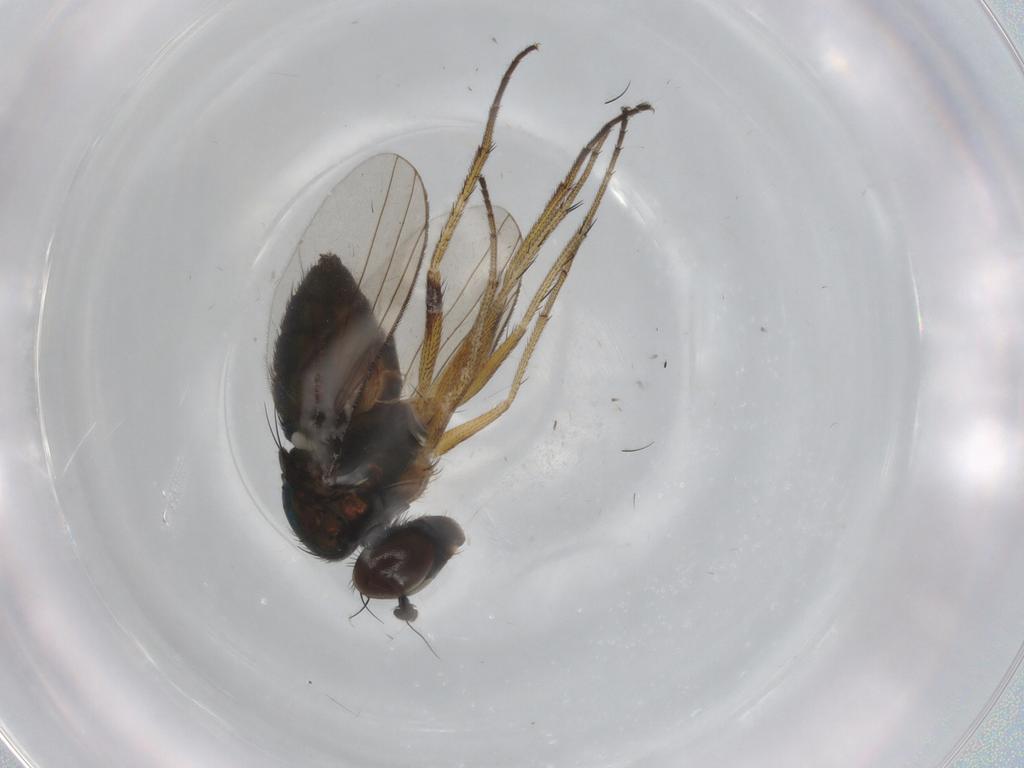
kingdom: Animalia
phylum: Arthropoda
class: Insecta
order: Diptera
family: Ceratopogonidae
